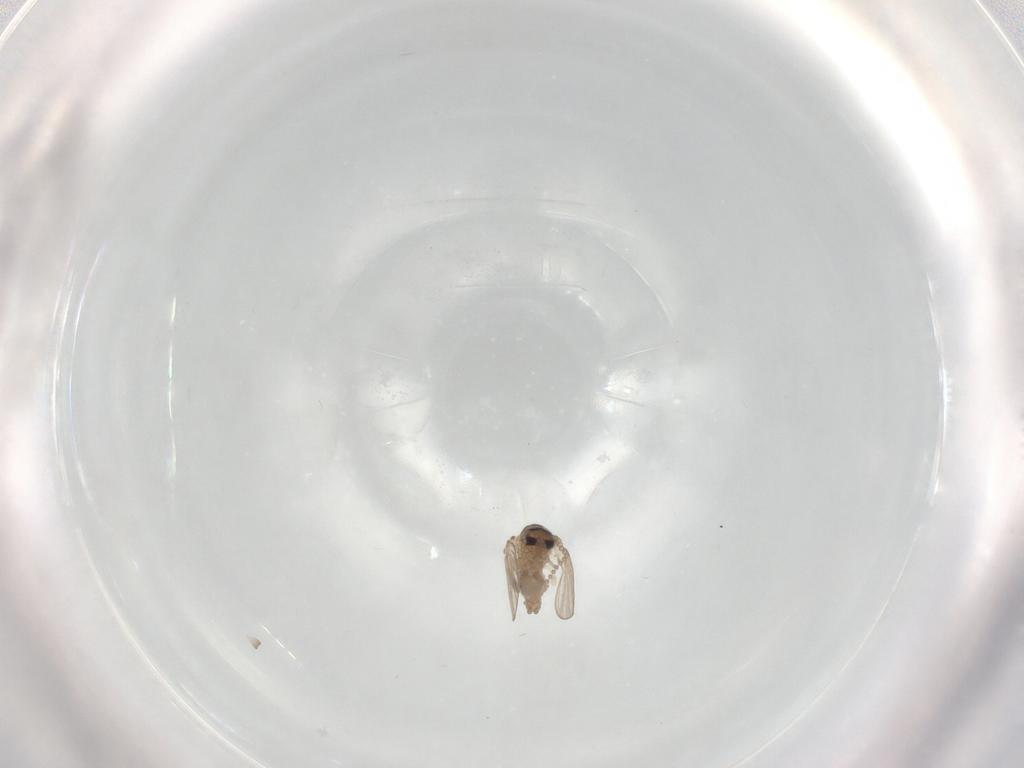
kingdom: Animalia
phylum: Arthropoda
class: Insecta
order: Diptera
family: Psychodidae
